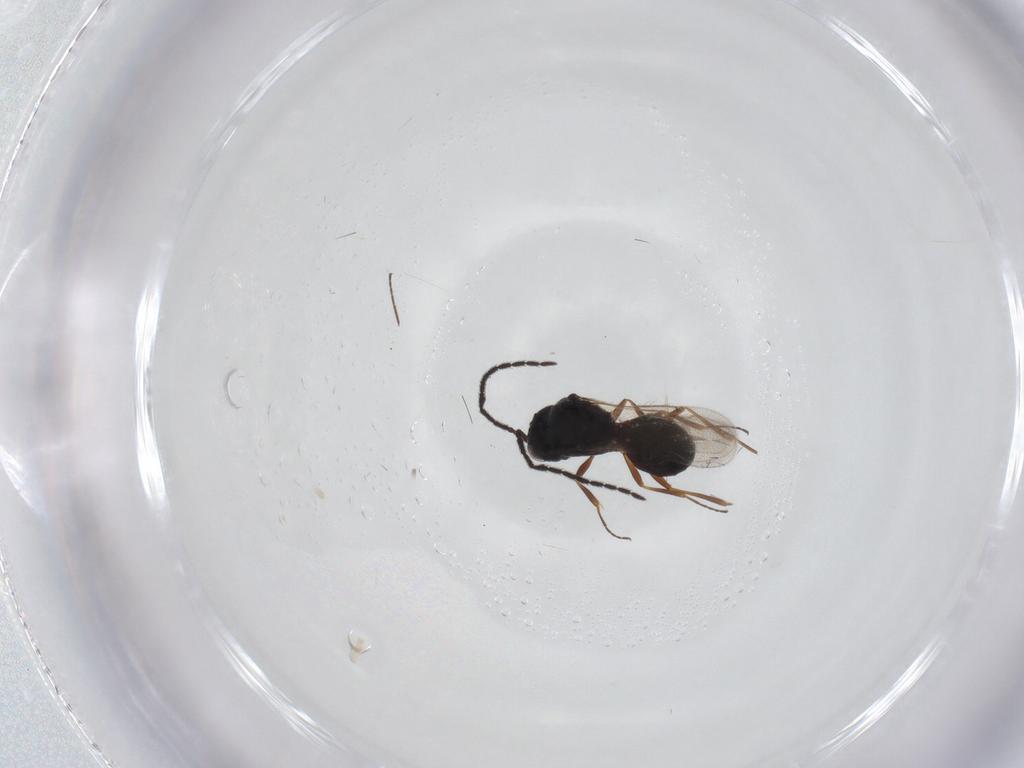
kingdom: Animalia
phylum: Arthropoda
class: Insecta
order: Hymenoptera
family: Scelionidae
